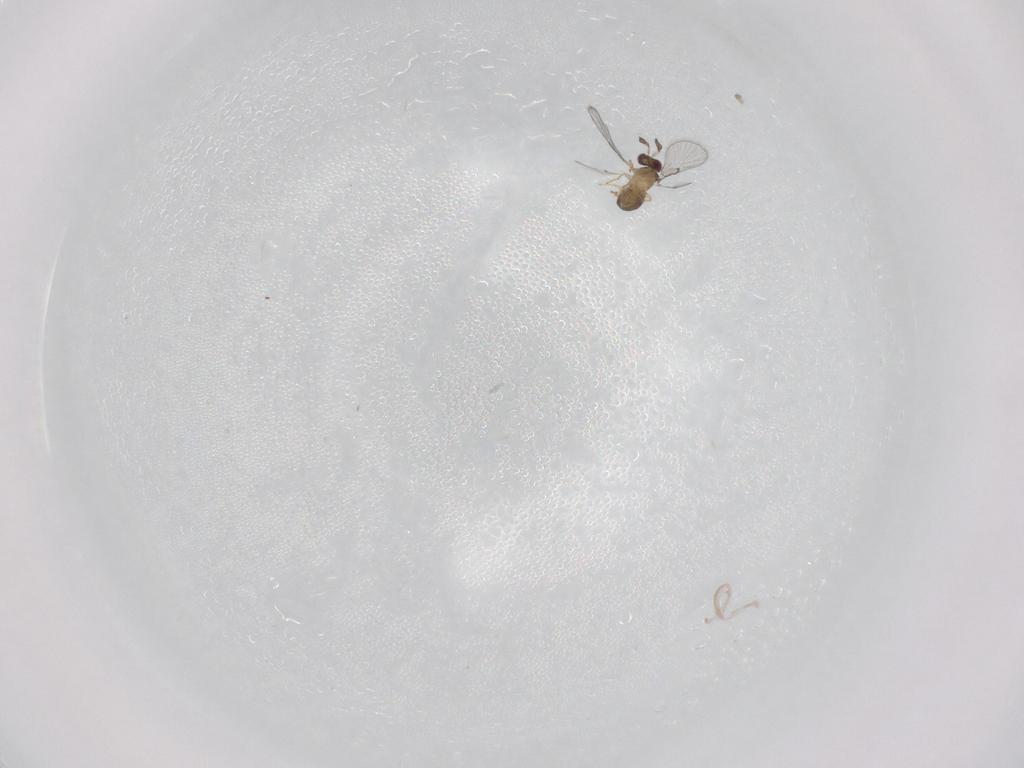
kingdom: Animalia
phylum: Arthropoda
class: Insecta
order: Hymenoptera
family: Trichogrammatidae
